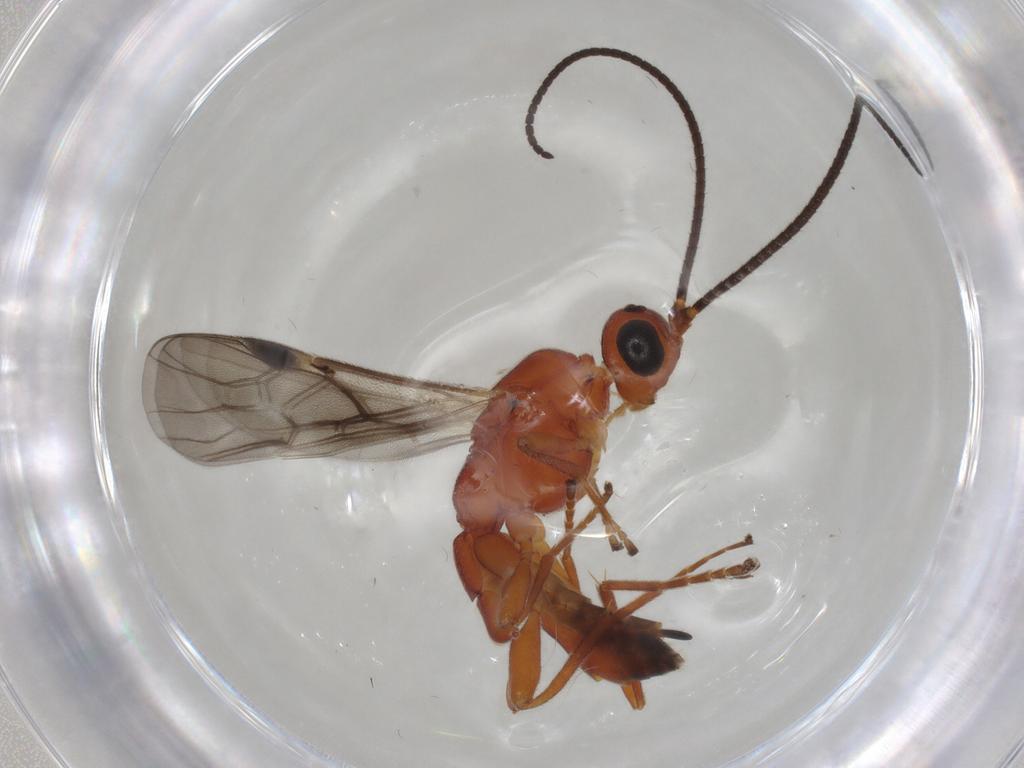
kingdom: Animalia
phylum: Arthropoda
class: Insecta
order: Hymenoptera
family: Braconidae
